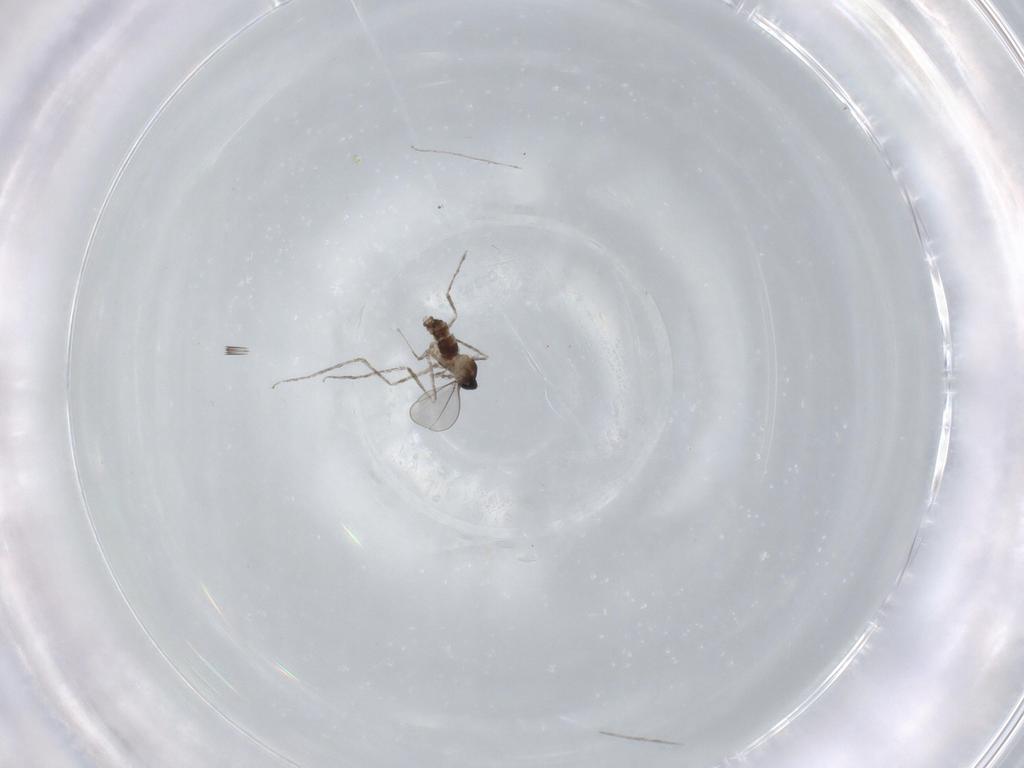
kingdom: Animalia
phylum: Arthropoda
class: Insecta
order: Diptera
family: Cecidomyiidae
